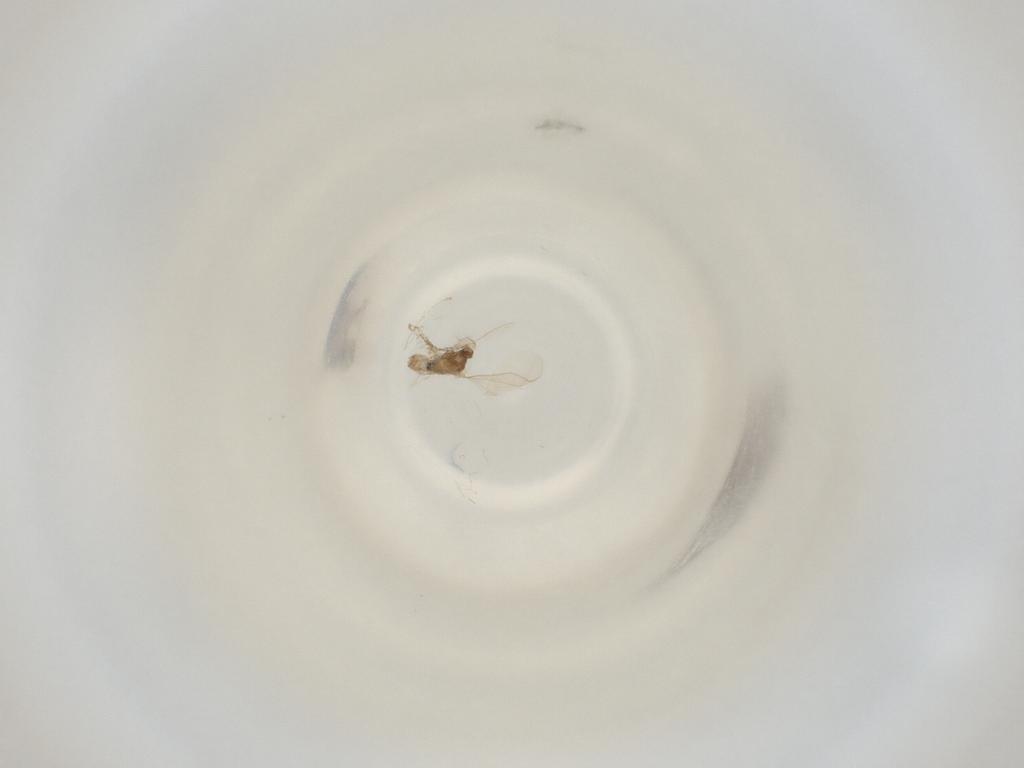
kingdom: Animalia
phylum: Arthropoda
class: Insecta
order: Diptera
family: Cecidomyiidae
